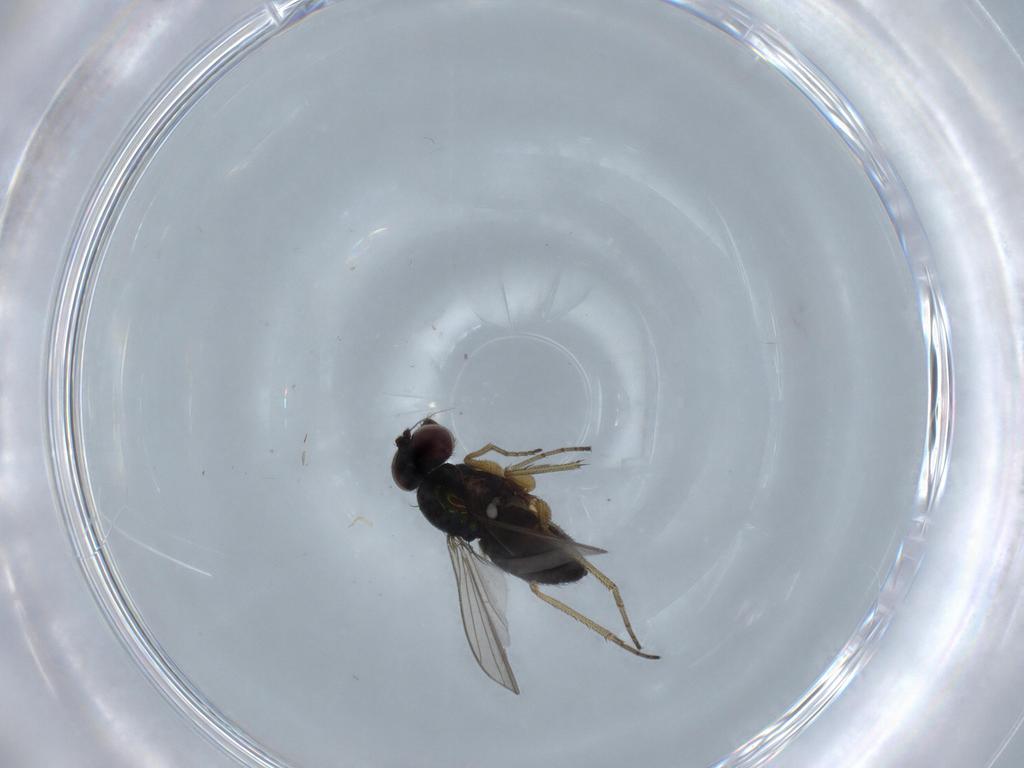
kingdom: Animalia
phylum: Arthropoda
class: Insecta
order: Diptera
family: Dolichopodidae
